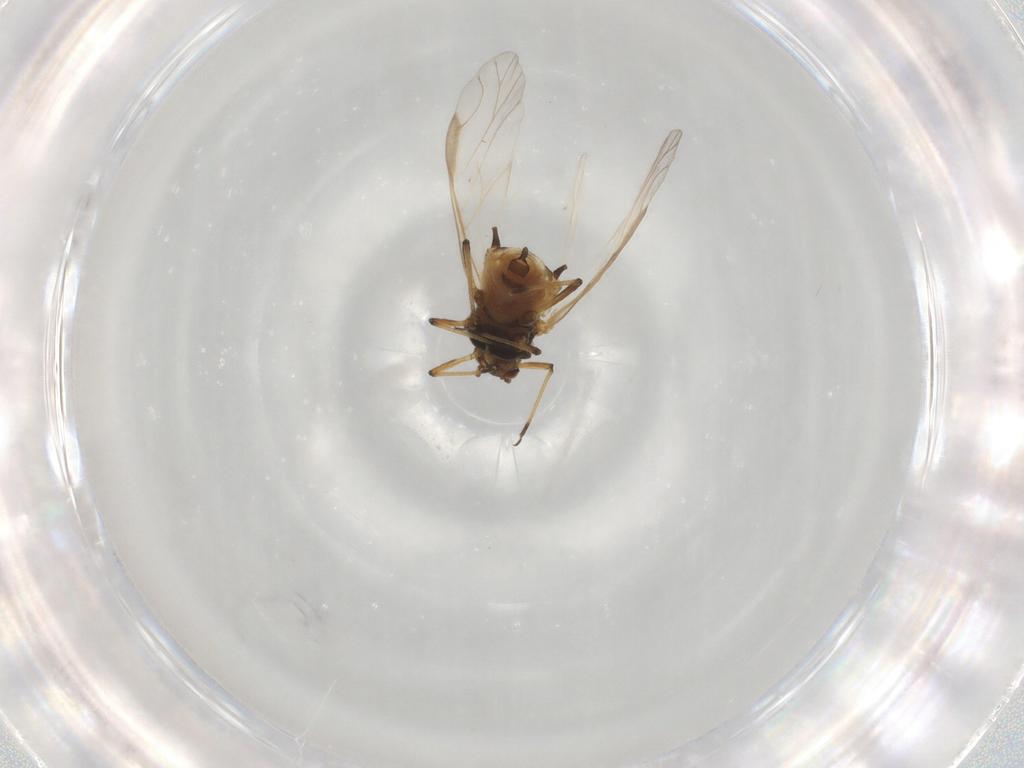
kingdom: Animalia
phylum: Arthropoda
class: Insecta
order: Hemiptera
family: Aphididae
